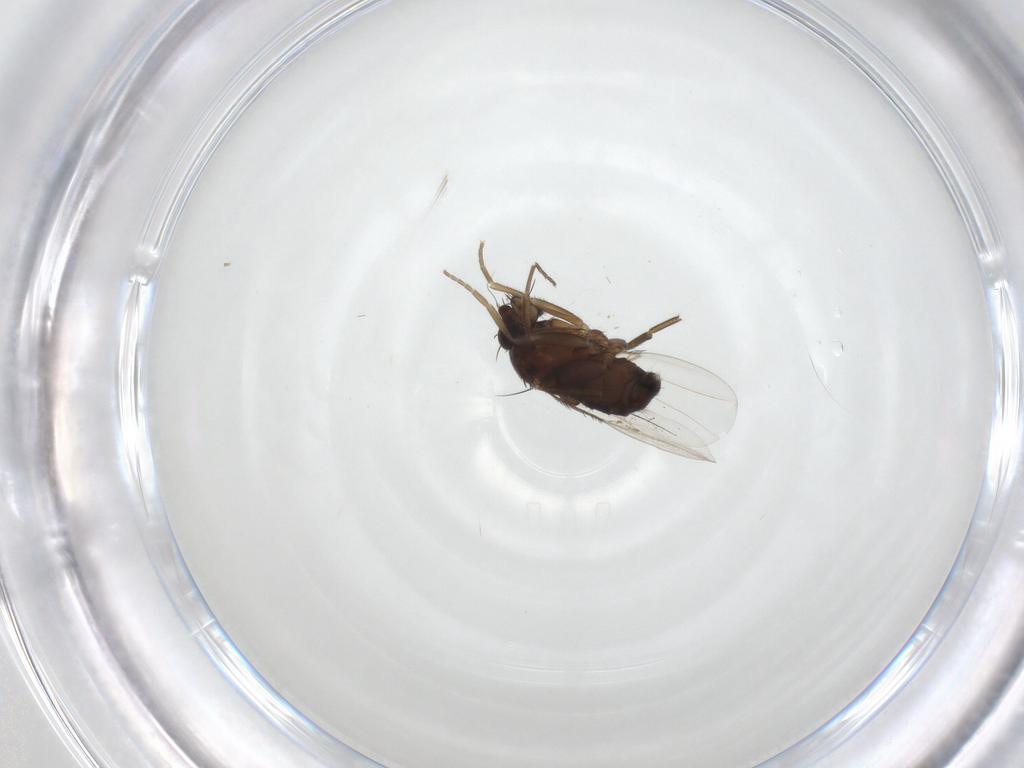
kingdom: Animalia
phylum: Arthropoda
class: Insecta
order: Diptera
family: Phoridae
